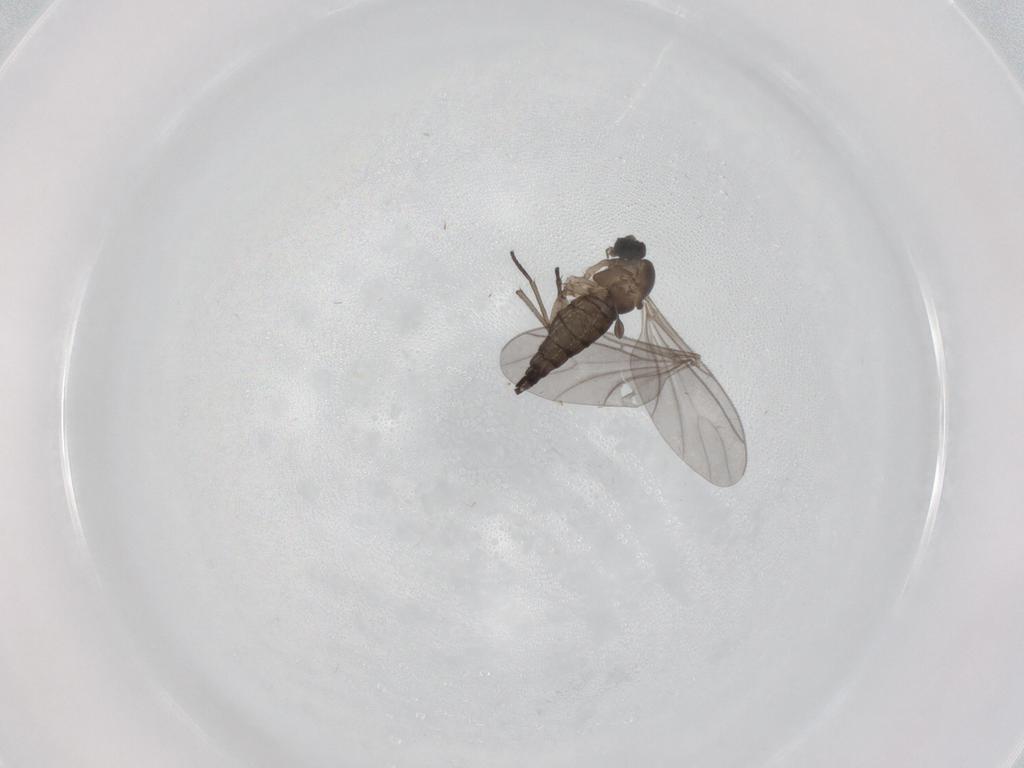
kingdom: Animalia
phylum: Arthropoda
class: Insecta
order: Diptera
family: Sciaridae
